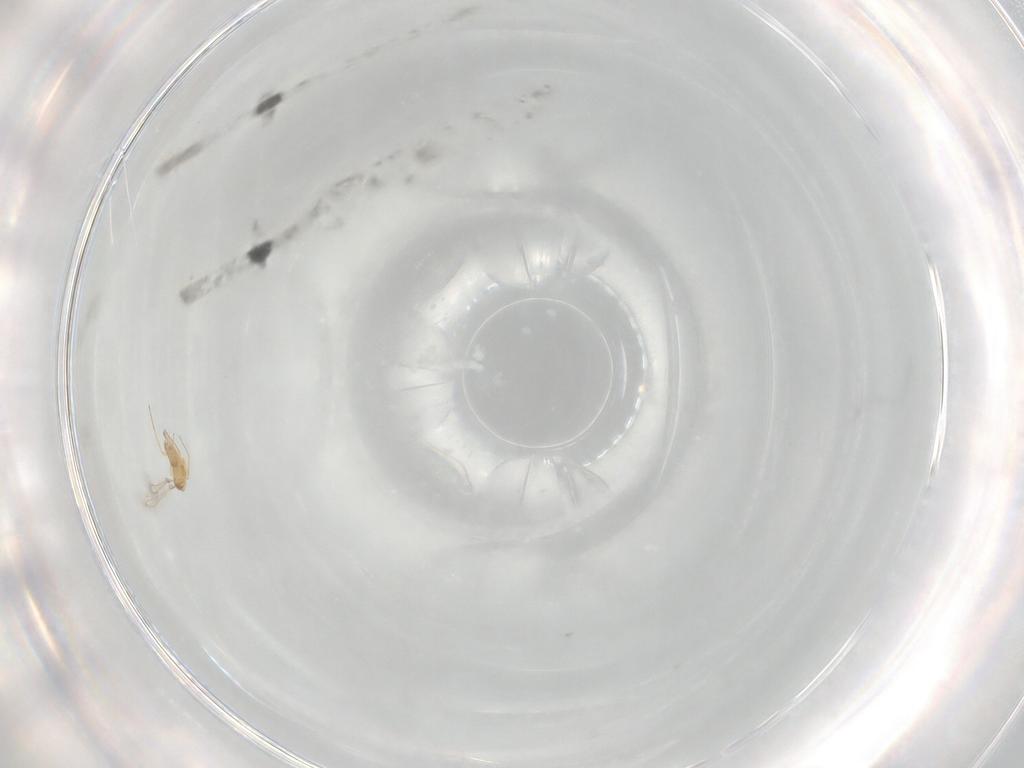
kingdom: Animalia
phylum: Arthropoda
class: Insecta
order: Hymenoptera
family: Mymaridae
